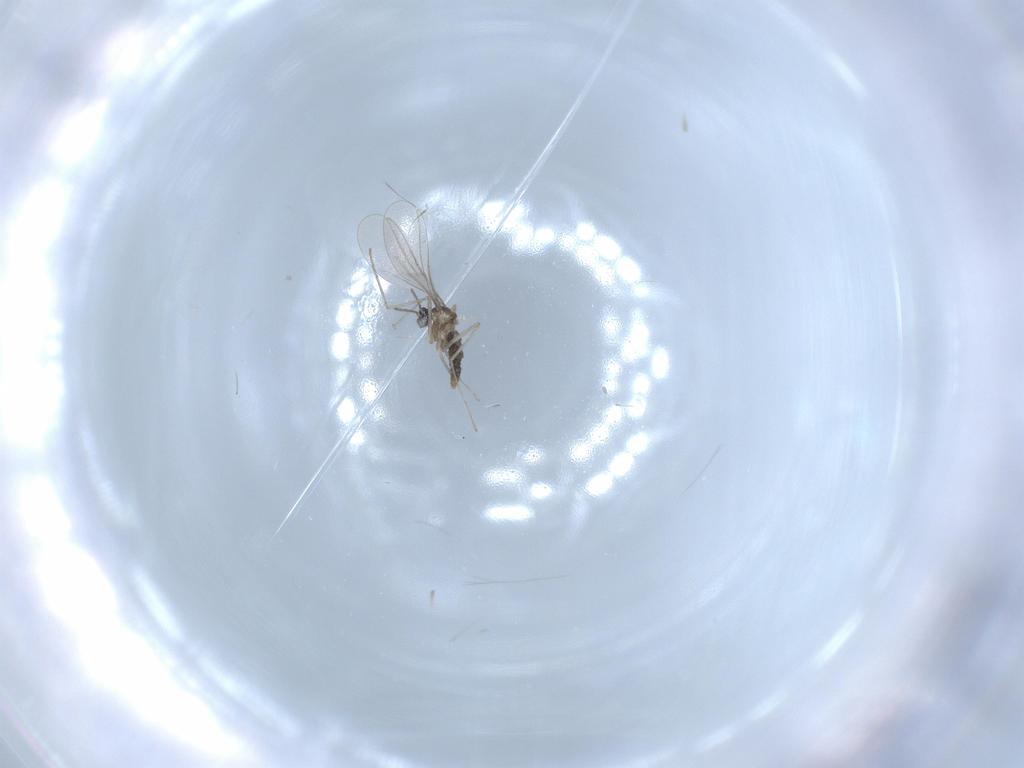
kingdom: Animalia
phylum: Arthropoda
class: Insecta
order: Diptera
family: Cecidomyiidae
